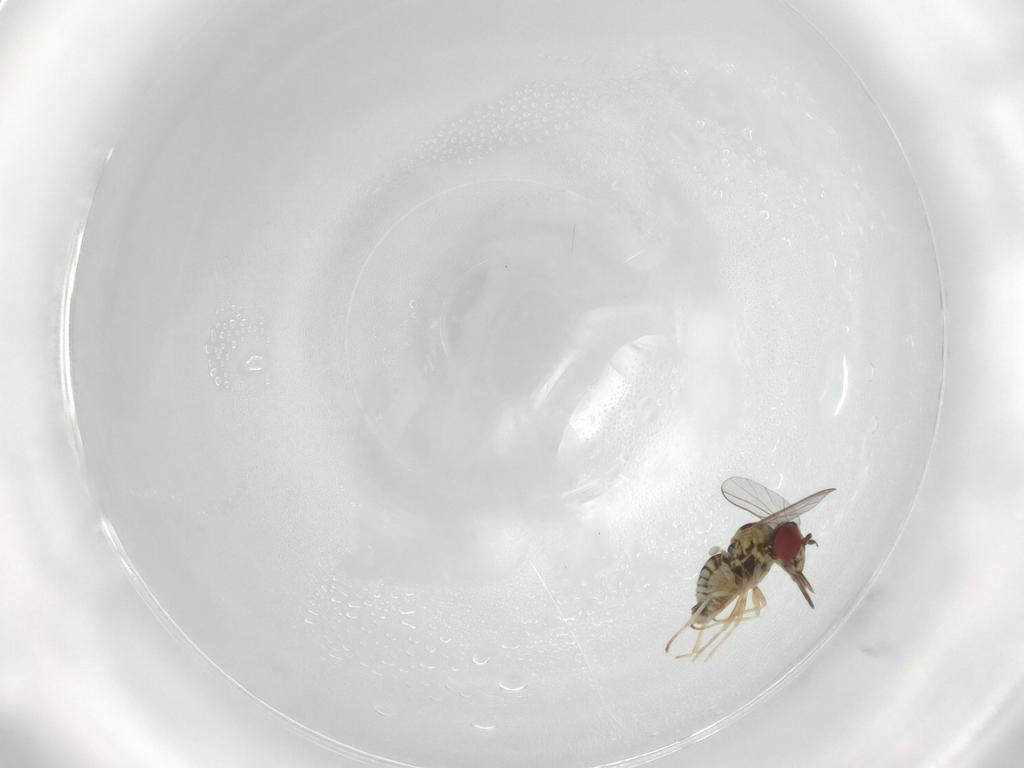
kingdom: Animalia
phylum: Arthropoda
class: Insecta
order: Diptera
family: Bombyliidae
